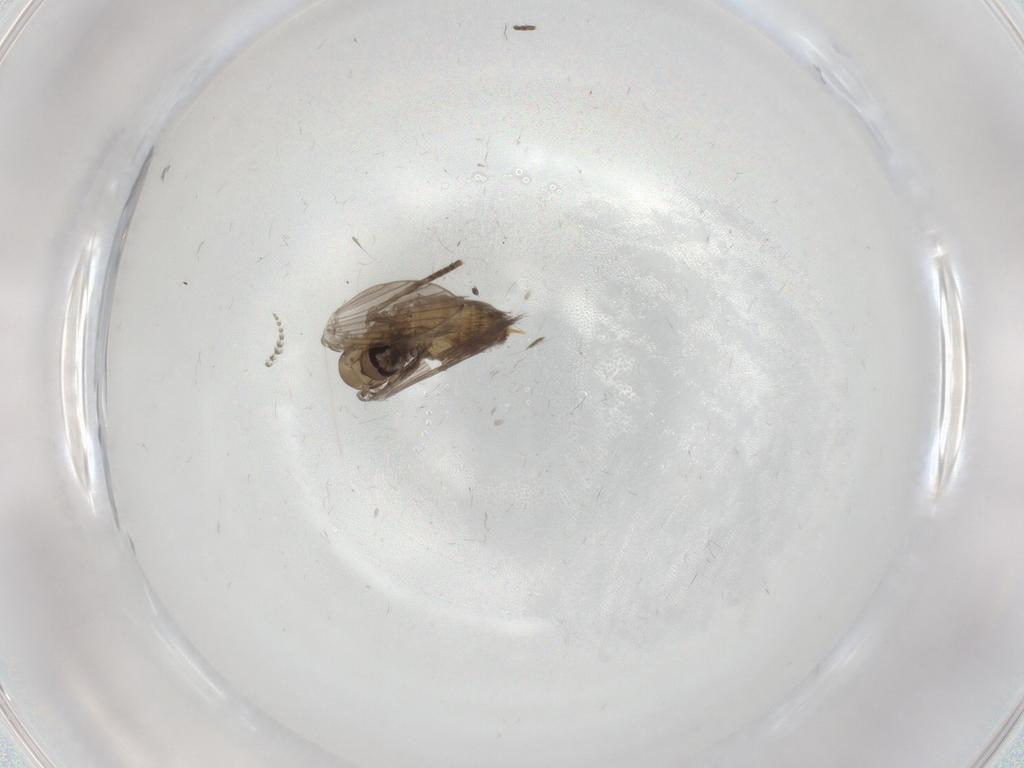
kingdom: Animalia
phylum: Arthropoda
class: Insecta
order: Diptera
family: Psychodidae
